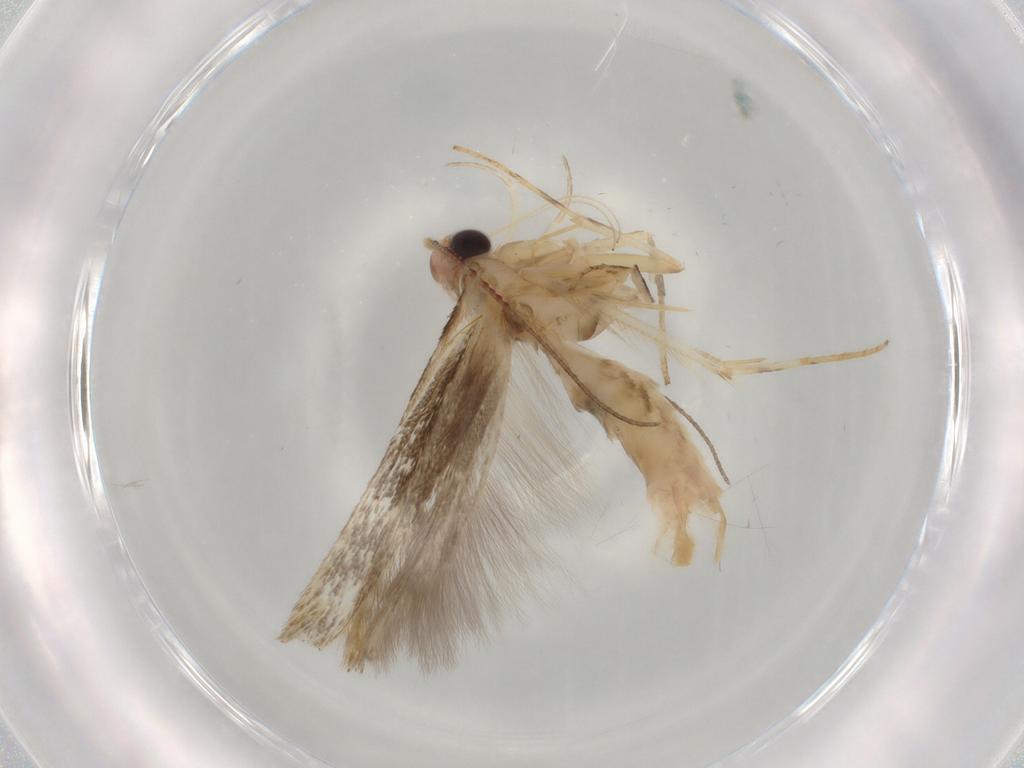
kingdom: Animalia
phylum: Arthropoda
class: Insecta
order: Lepidoptera
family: Gelechiidae
